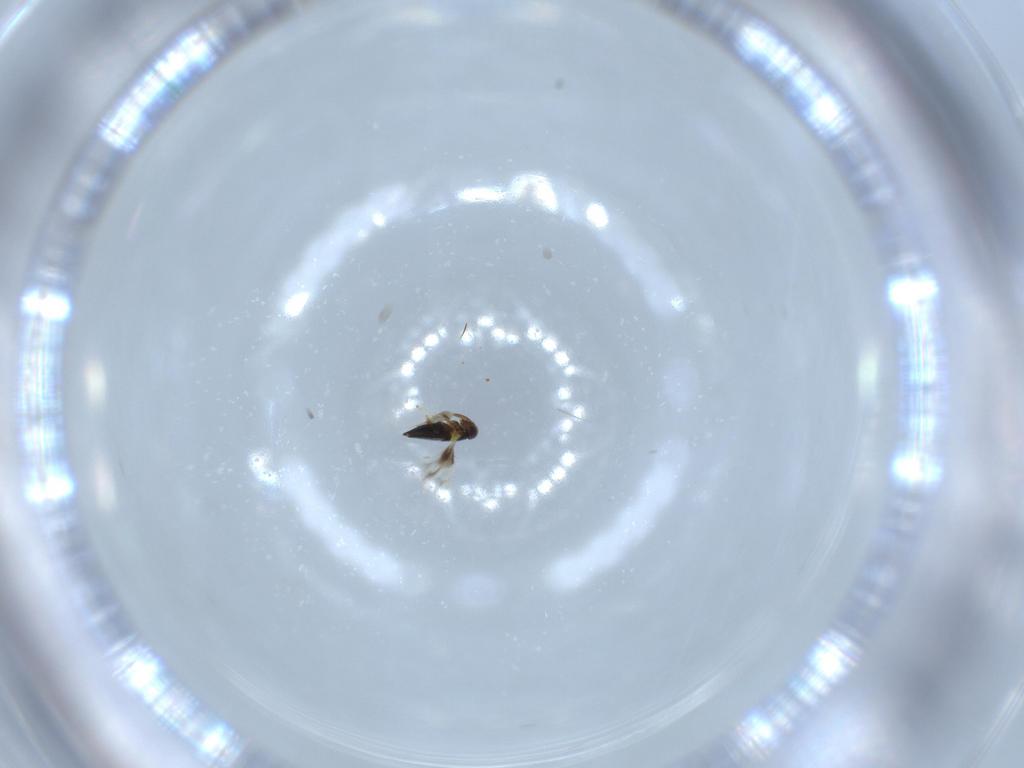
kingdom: Animalia
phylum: Arthropoda
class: Insecta
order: Hymenoptera
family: Signiphoridae
